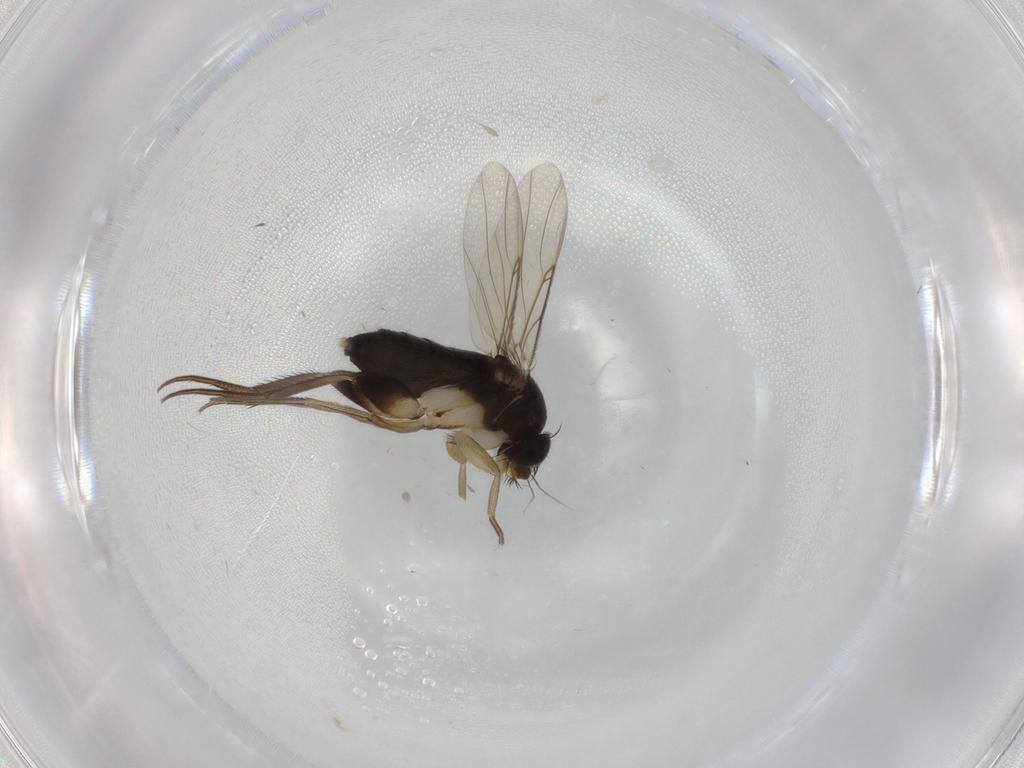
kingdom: Animalia
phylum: Arthropoda
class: Insecta
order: Diptera
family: Phoridae
